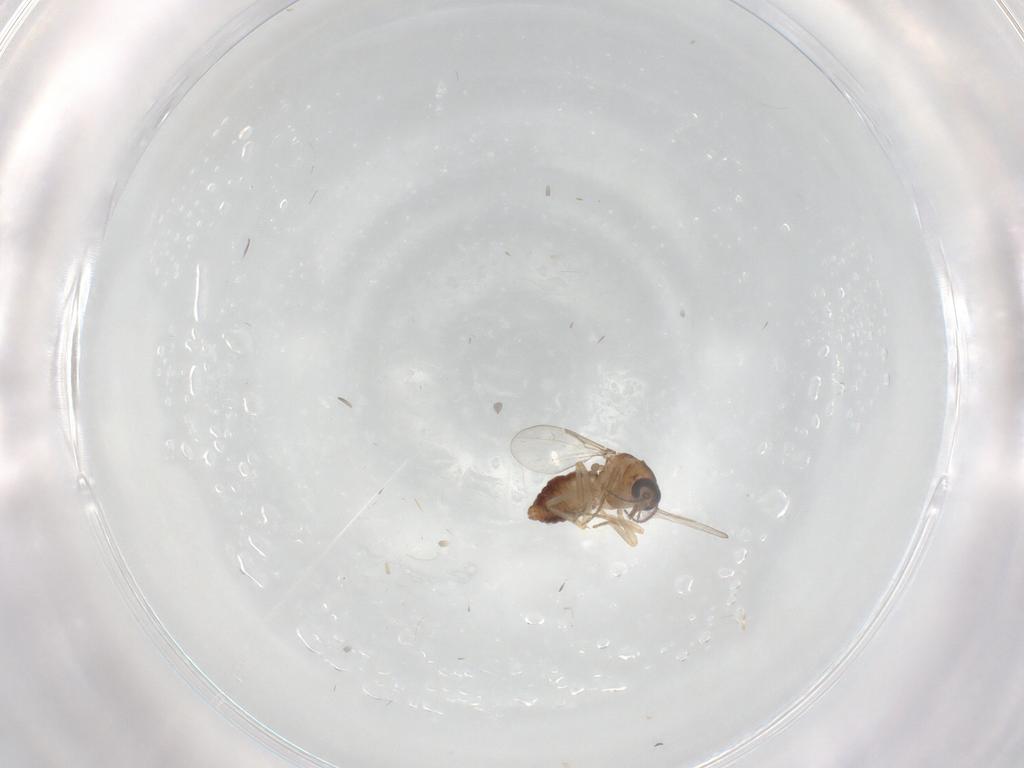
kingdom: Animalia
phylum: Arthropoda
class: Insecta
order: Diptera
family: Ceratopogonidae
